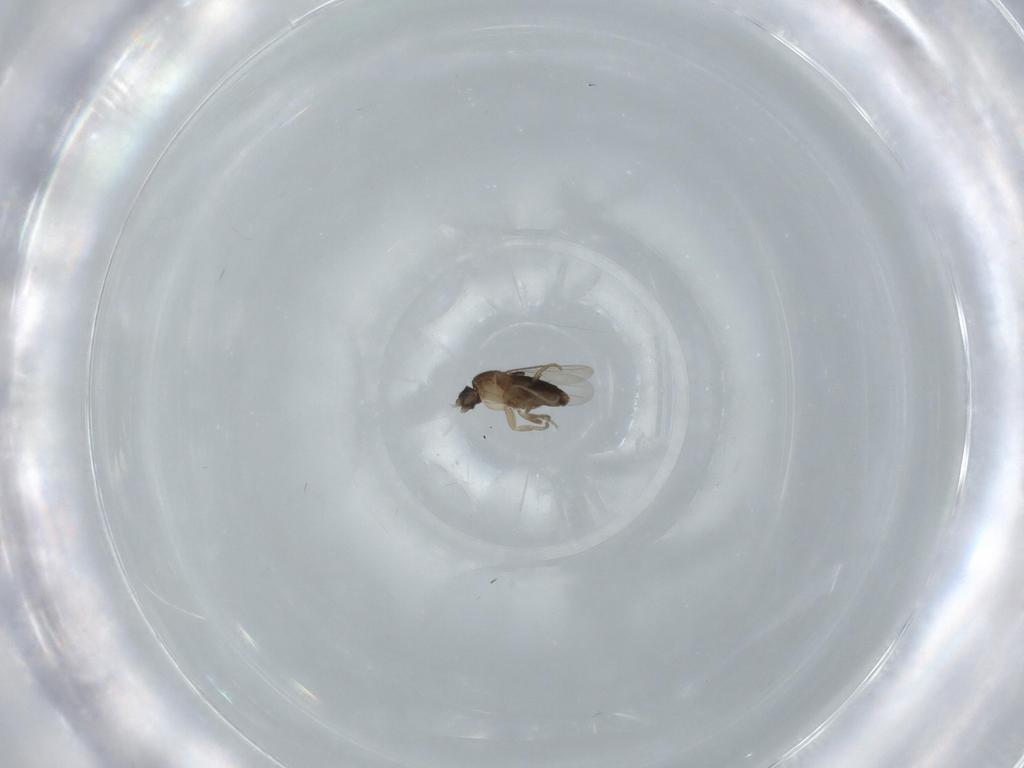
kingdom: Animalia
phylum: Arthropoda
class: Insecta
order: Diptera
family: Phoridae
